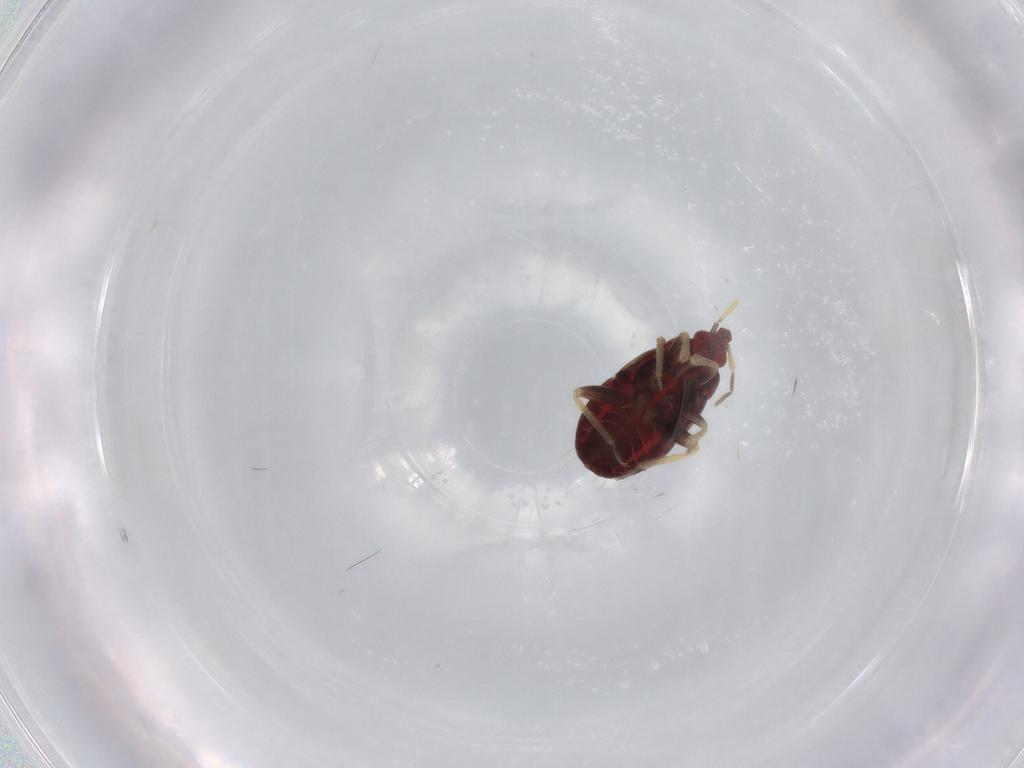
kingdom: Animalia
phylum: Arthropoda
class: Insecta
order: Hemiptera
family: Anthocoridae
